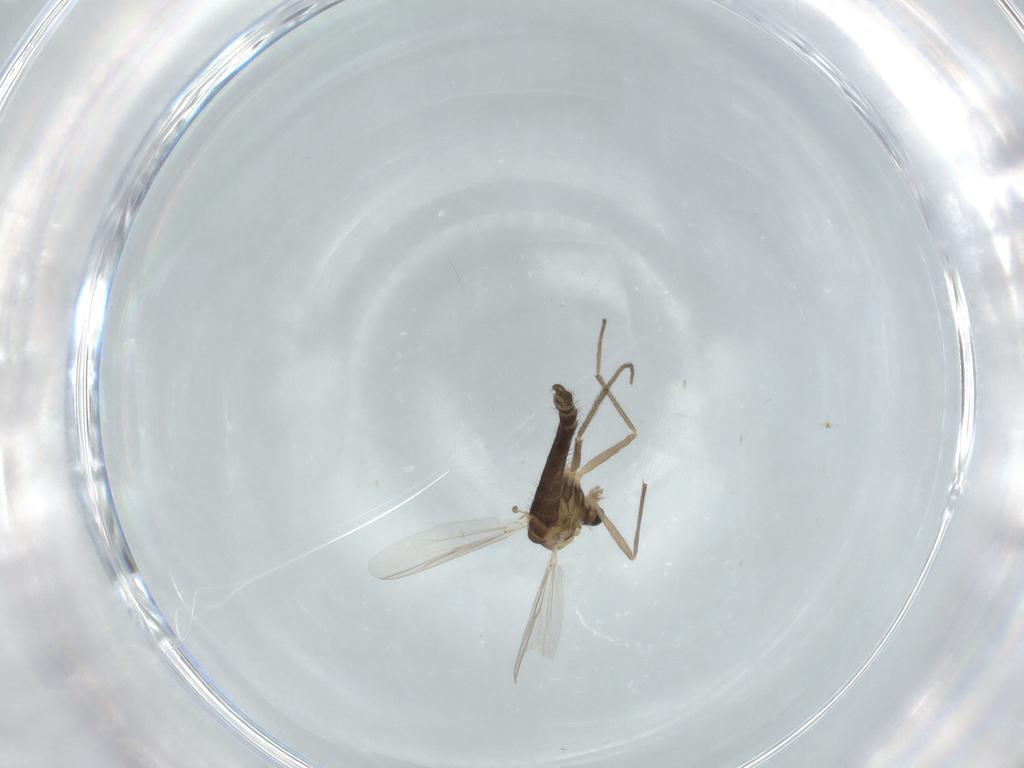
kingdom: Animalia
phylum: Arthropoda
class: Insecta
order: Diptera
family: Chironomidae
